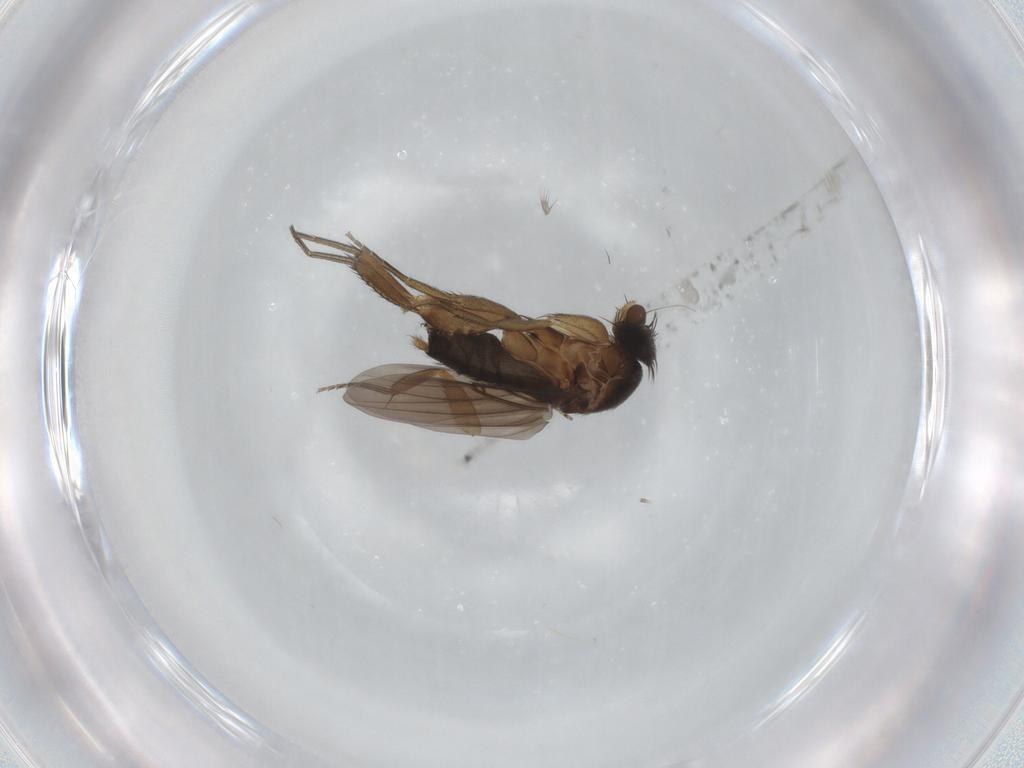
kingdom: Animalia
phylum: Arthropoda
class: Insecta
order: Diptera
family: Phoridae
